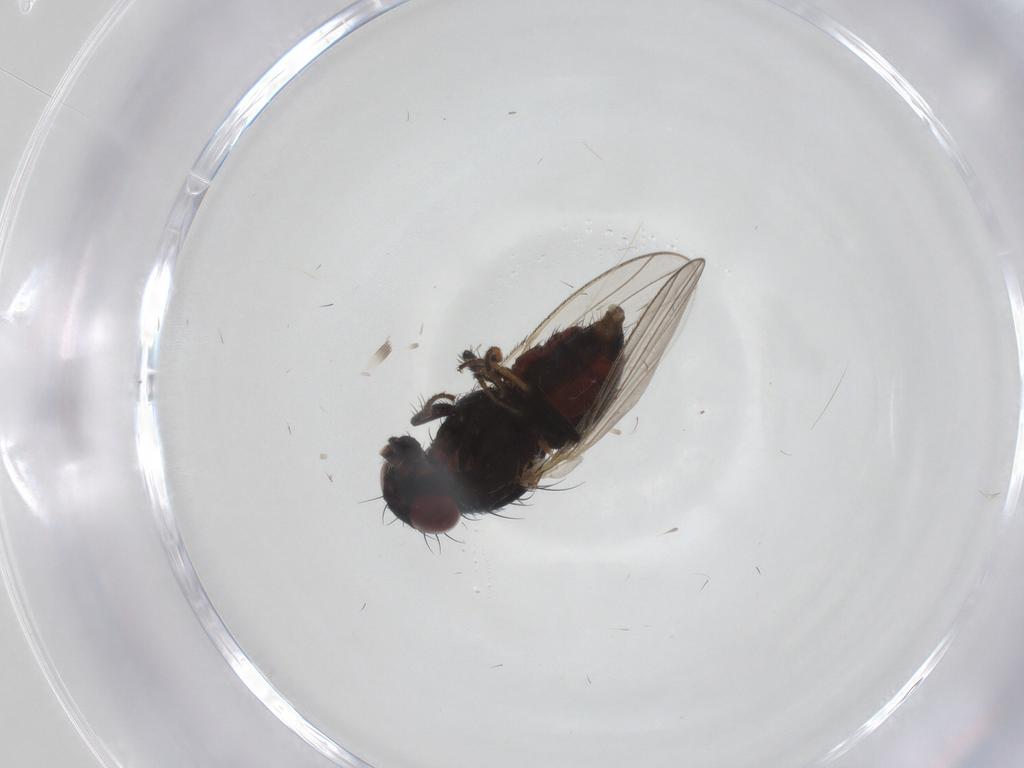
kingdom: Animalia
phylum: Arthropoda
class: Insecta
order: Diptera
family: Carnidae
